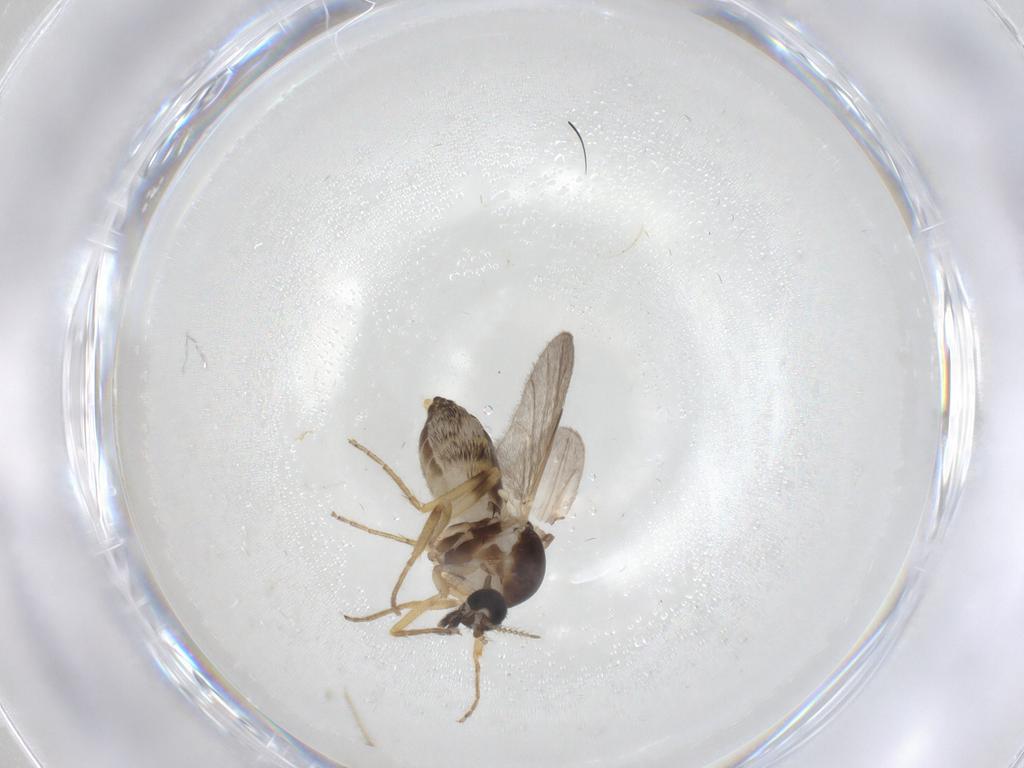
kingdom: Animalia
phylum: Arthropoda
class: Insecta
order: Diptera
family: Ceratopogonidae
